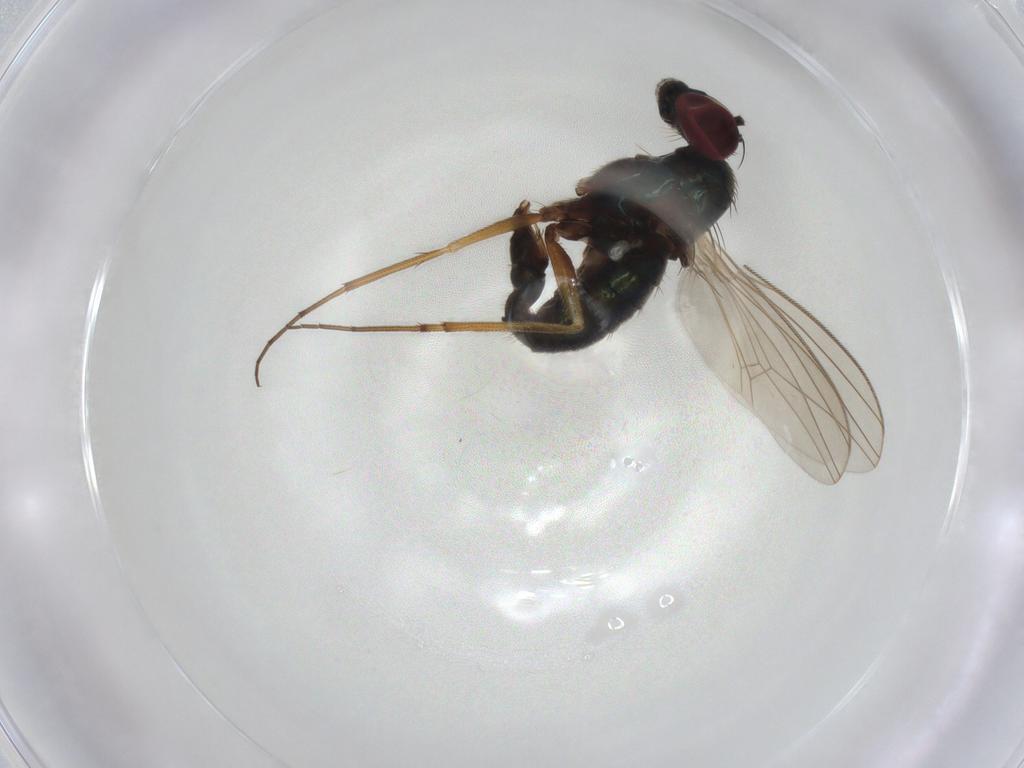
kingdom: Animalia
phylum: Arthropoda
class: Insecta
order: Diptera
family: Dolichopodidae
